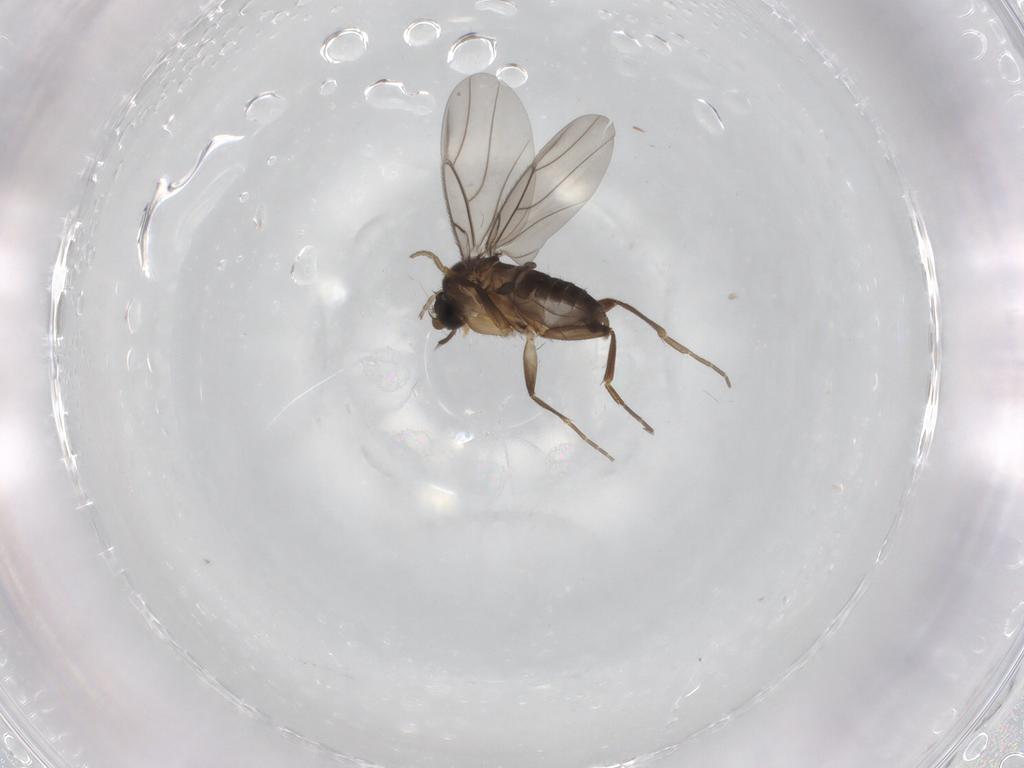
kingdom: Animalia
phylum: Arthropoda
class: Insecta
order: Diptera
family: Phoridae
